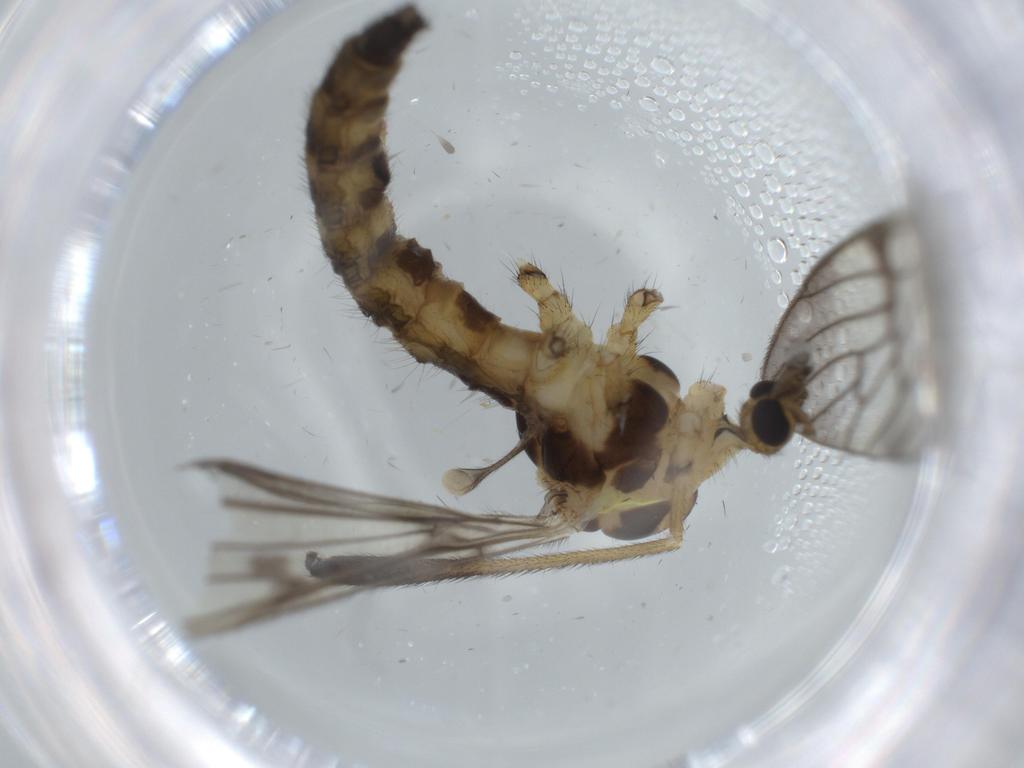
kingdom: Animalia
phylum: Arthropoda
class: Insecta
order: Diptera
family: Limoniidae
